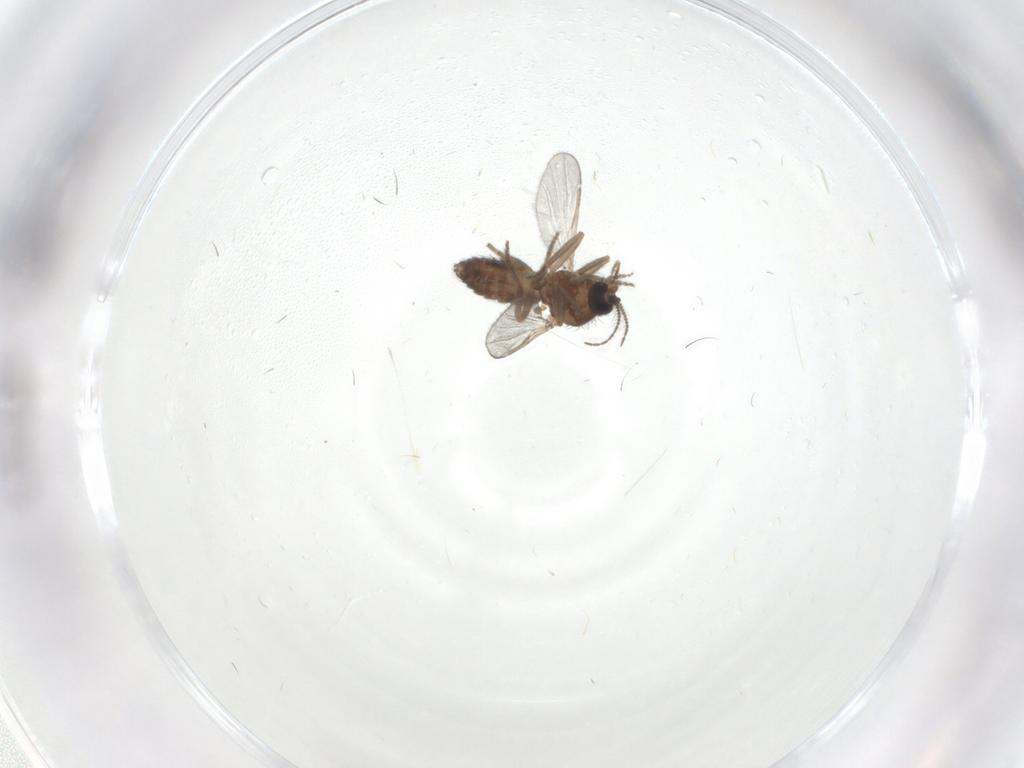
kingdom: Animalia
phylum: Arthropoda
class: Insecta
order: Diptera
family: Ceratopogonidae
